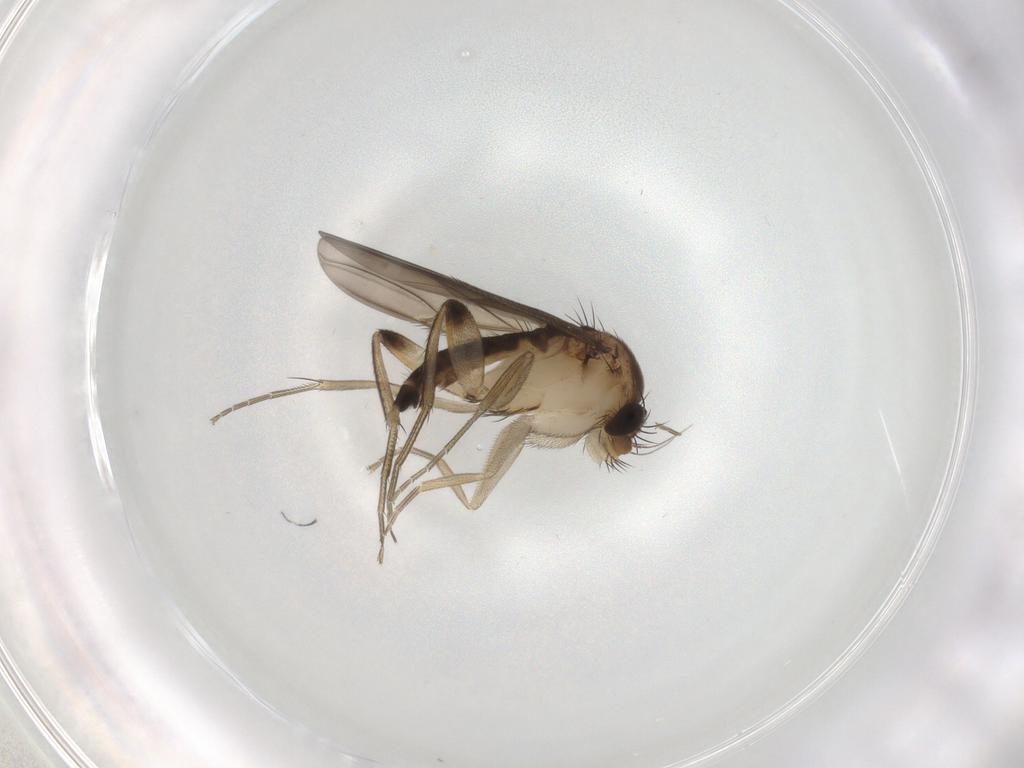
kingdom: Animalia
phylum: Arthropoda
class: Insecta
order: Diptera
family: Phoridae
